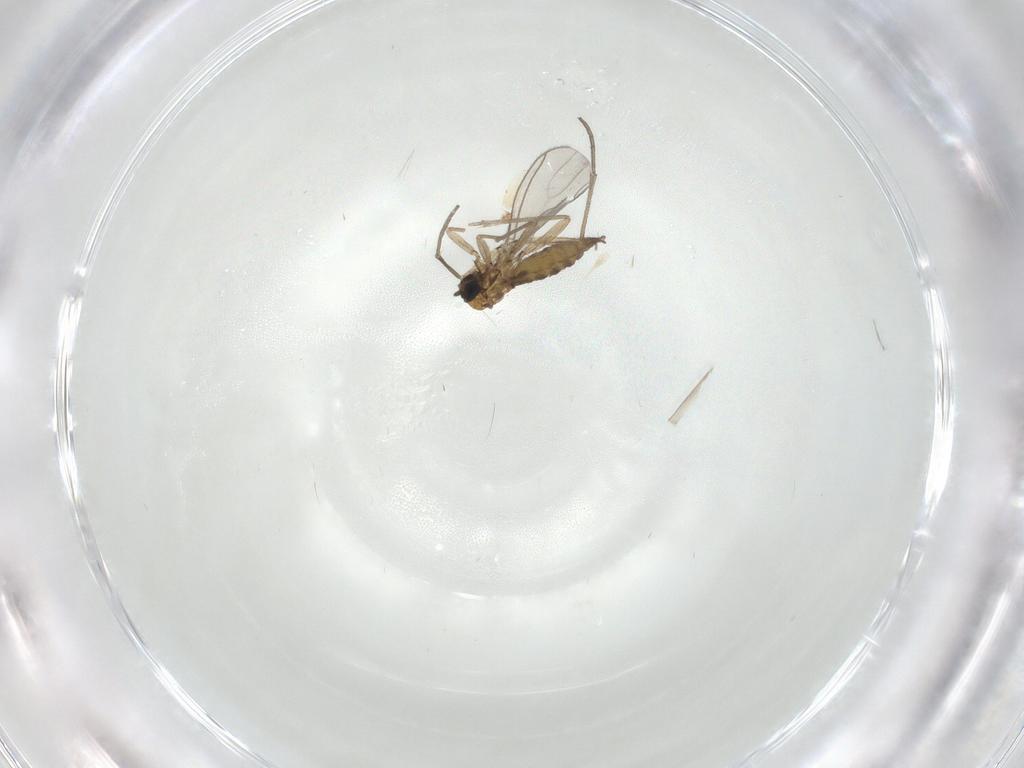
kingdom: Animalia
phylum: Arthropoda
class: Insecta
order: Diptera
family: Sciaridae
